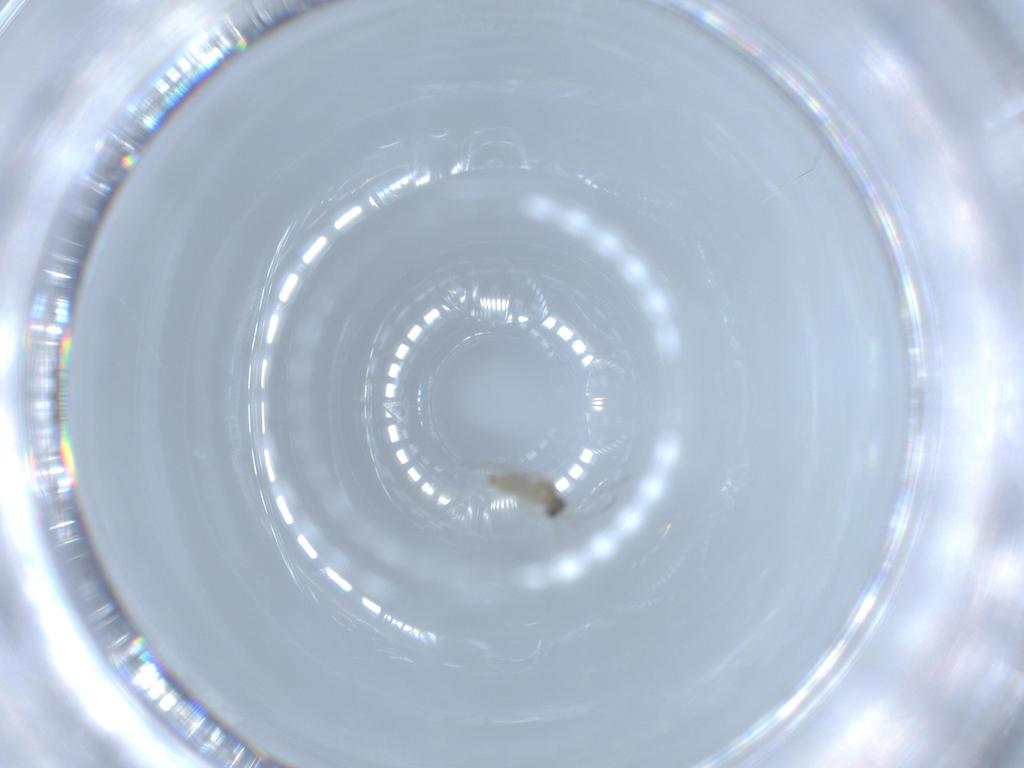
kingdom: Animalia
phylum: Arthropoda
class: Insecta
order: Diptera
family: Cecidomyiidae
